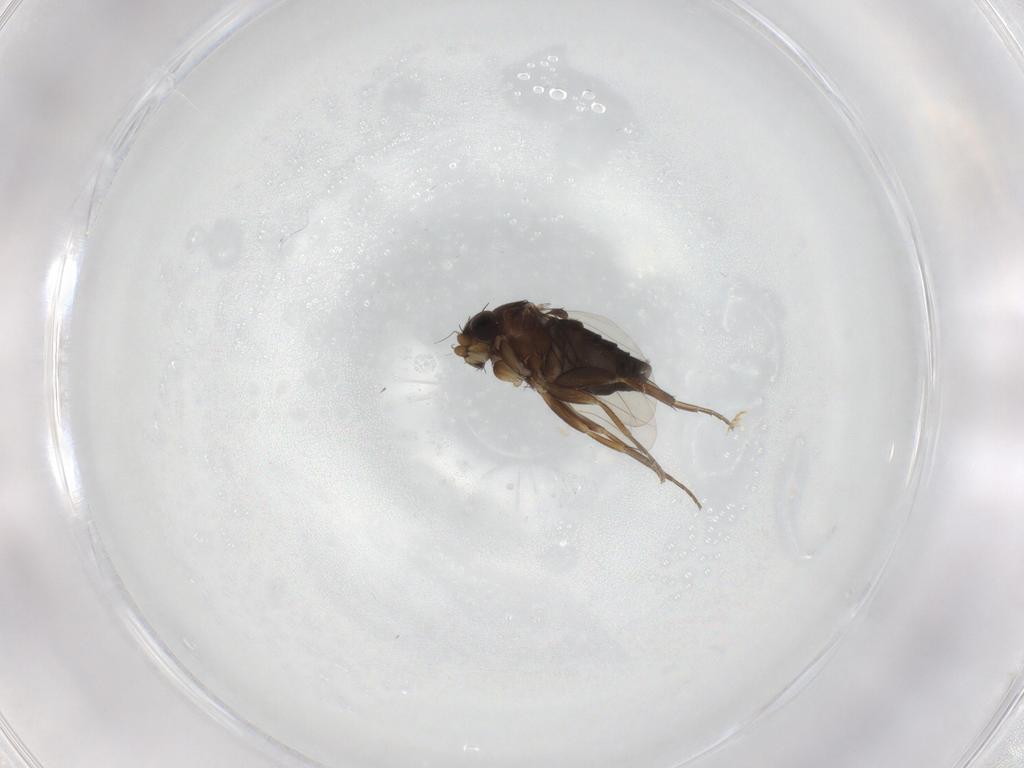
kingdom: Animalia
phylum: Arthropoda
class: Insecta
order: Diptera
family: Phoridae
